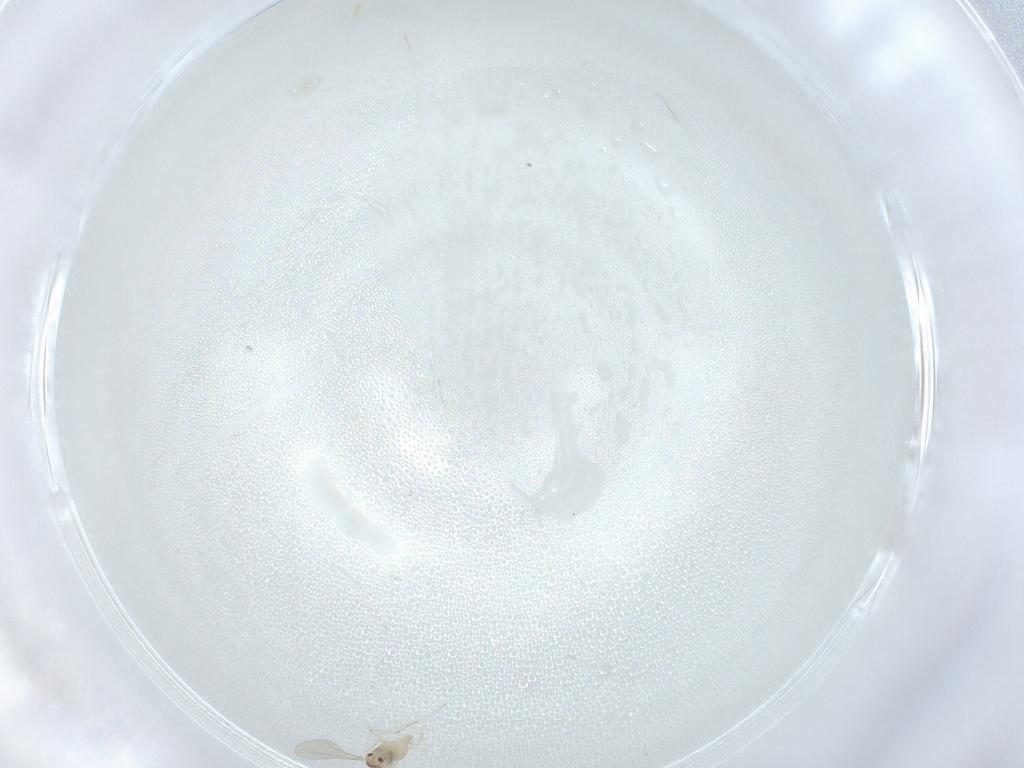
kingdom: Animalia
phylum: Arthropoda
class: Insecta
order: Diptera
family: Cecidomyiidae
